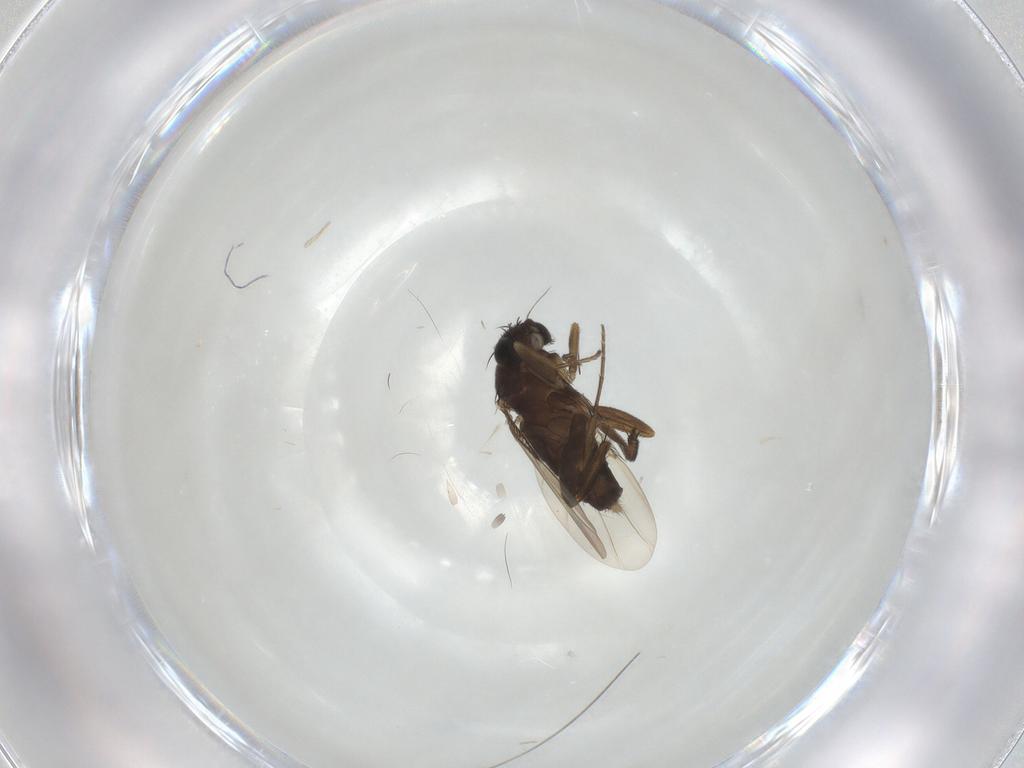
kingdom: Animalia
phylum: Arthropoda
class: Insecta
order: Diptera
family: Phoridae
